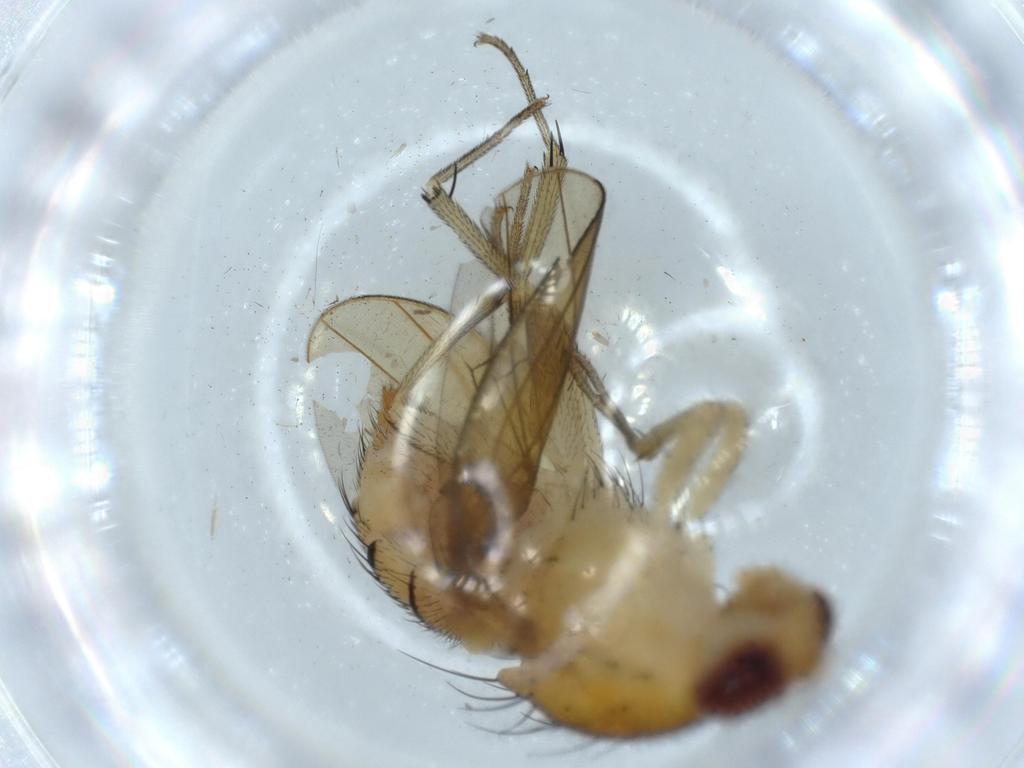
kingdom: Animalia
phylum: Arthropoda
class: Insecta
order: Diptera
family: Lauxaniidae
